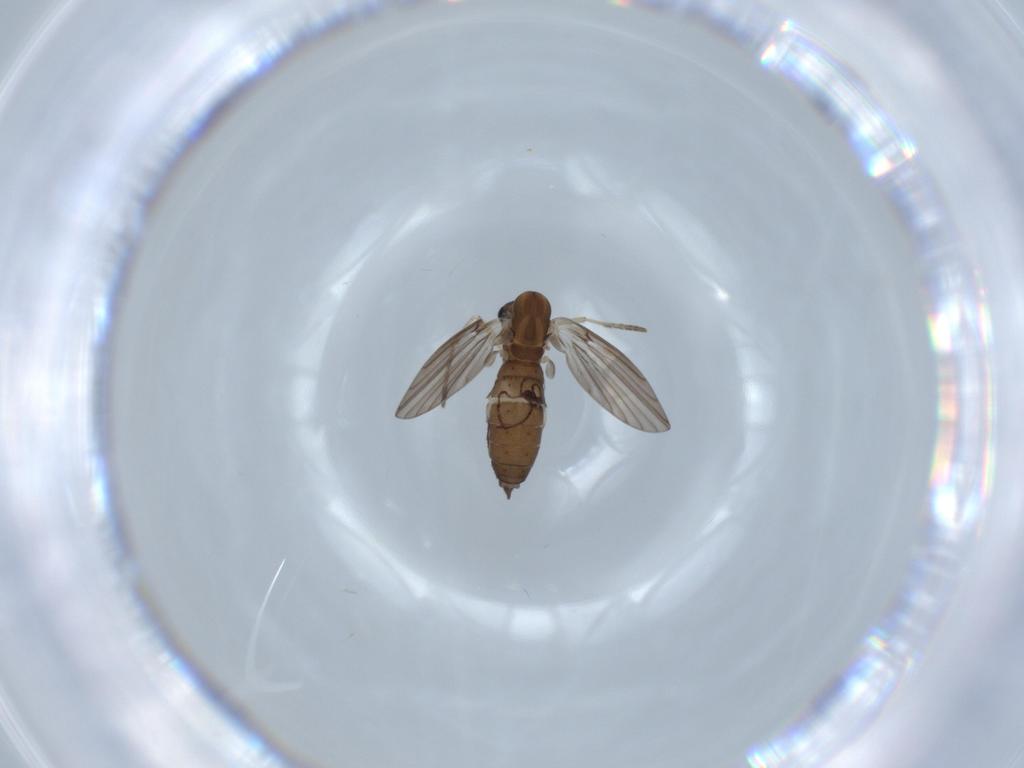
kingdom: Animalia
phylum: Arthropoda
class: Insecta
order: Diptera
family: Psychodidae
